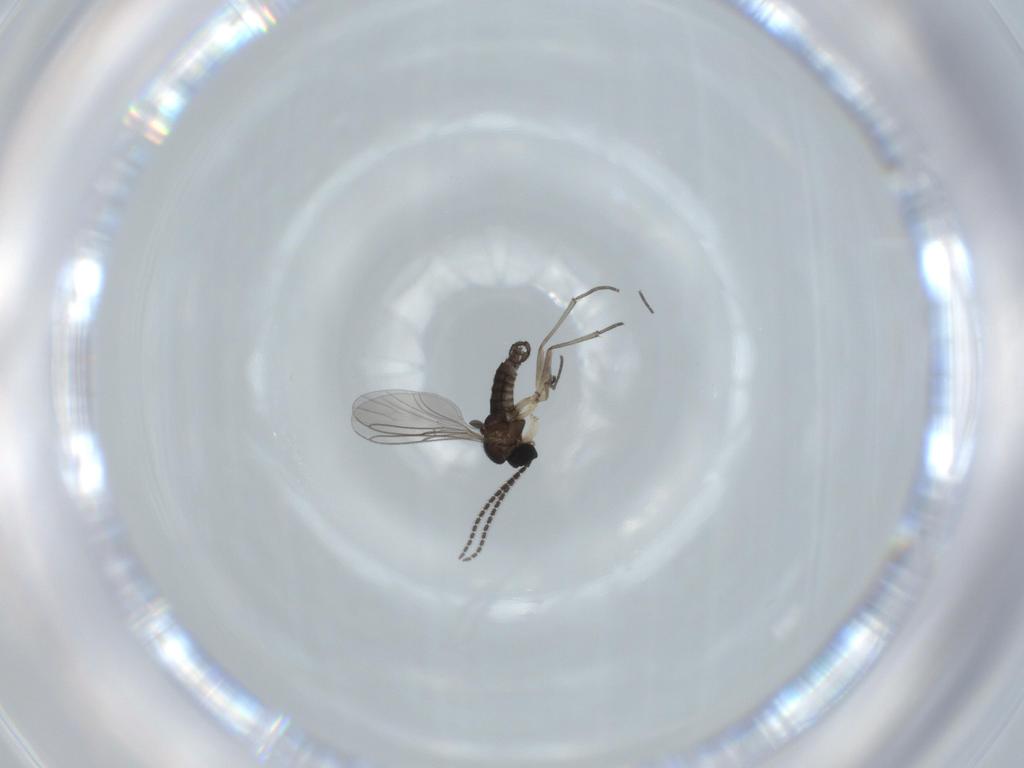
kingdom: Animalia
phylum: Arthropoda
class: Insecta
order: Diptera
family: Sciaridae
